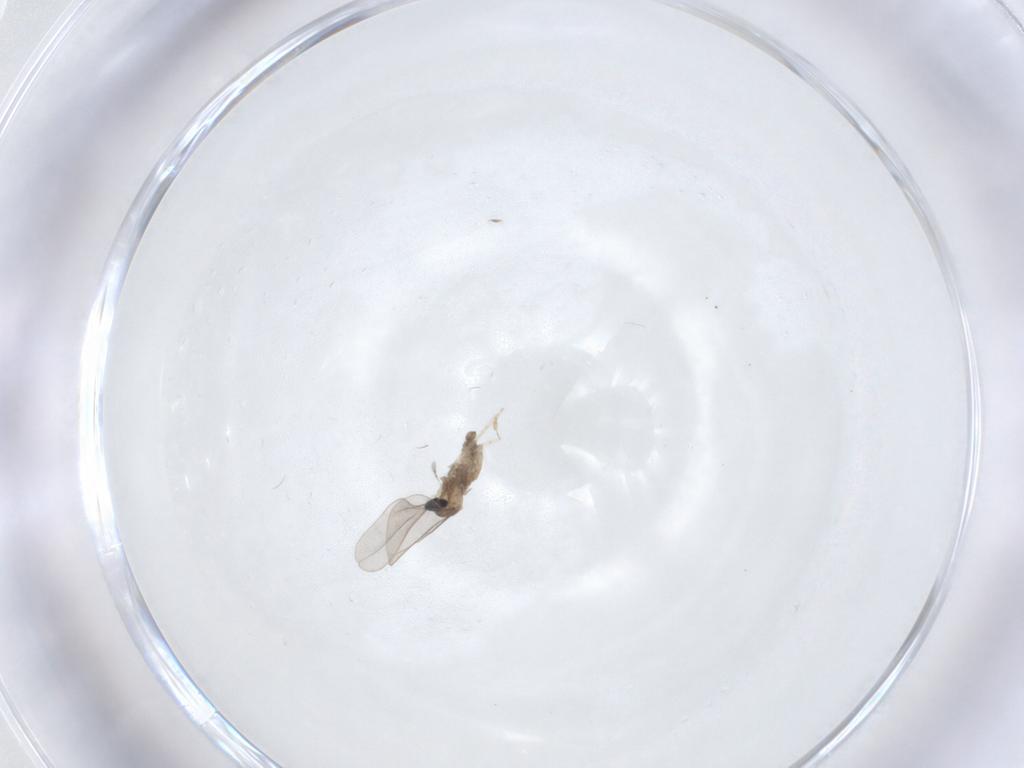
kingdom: Animalia
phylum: Arthropoda
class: Insecta
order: Diptera
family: Chironomidae
